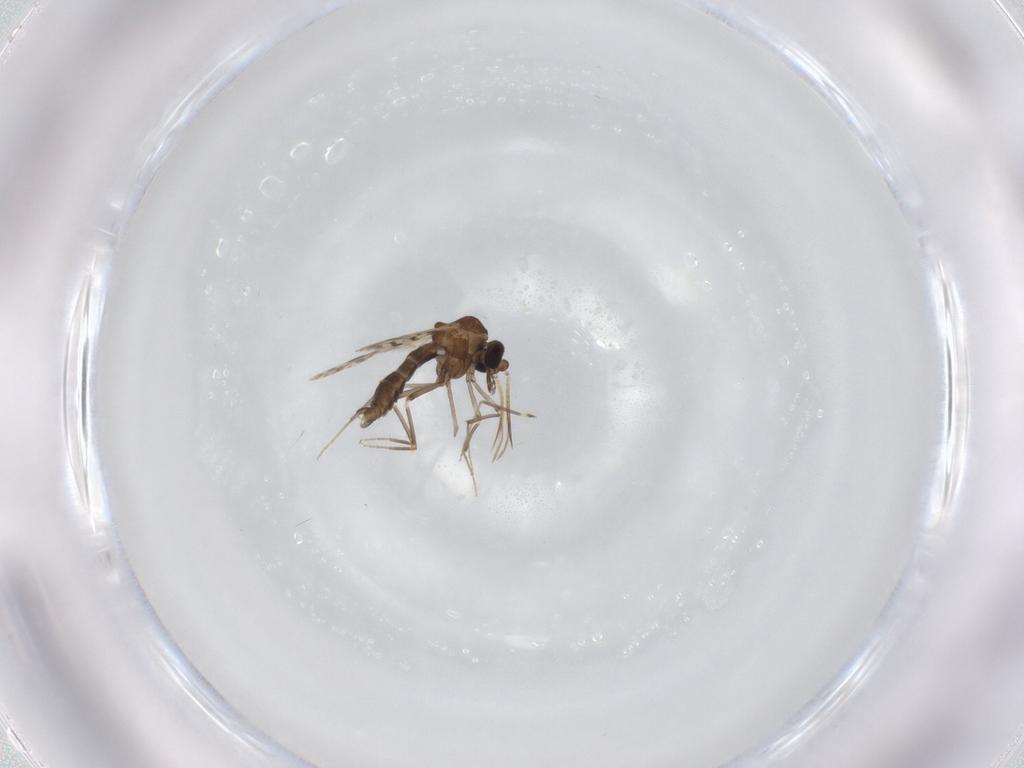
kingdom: Animalia
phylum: Arthropoda
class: Insecta
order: Diptera
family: Ceratopogonidae
